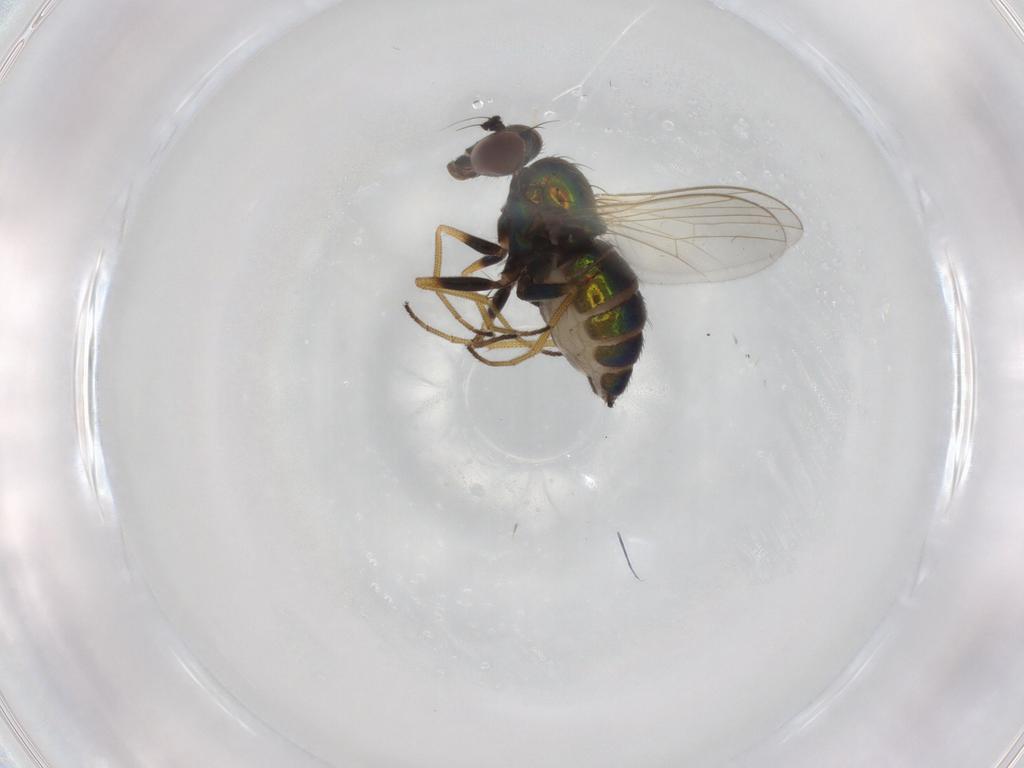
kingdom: Animalia
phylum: Arthropoda
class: Insecta
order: Diptera
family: Dolichopodidae
